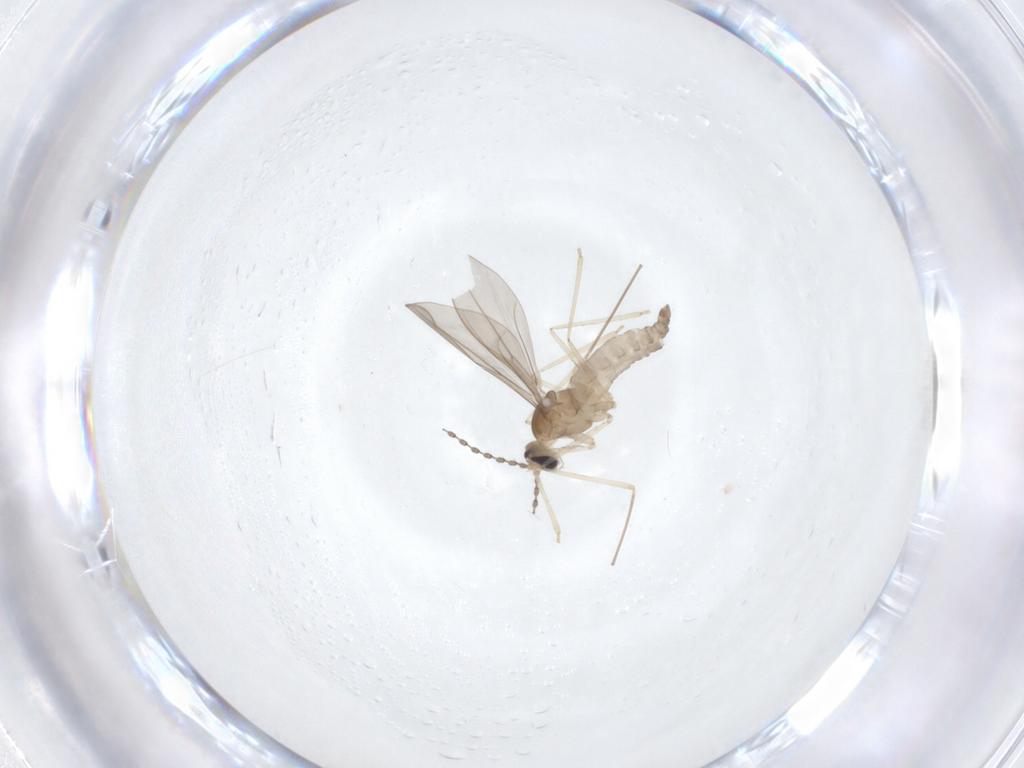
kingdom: Animalia
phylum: Arthropoda
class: Insecta
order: Diptera
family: Cecidomyiidae
